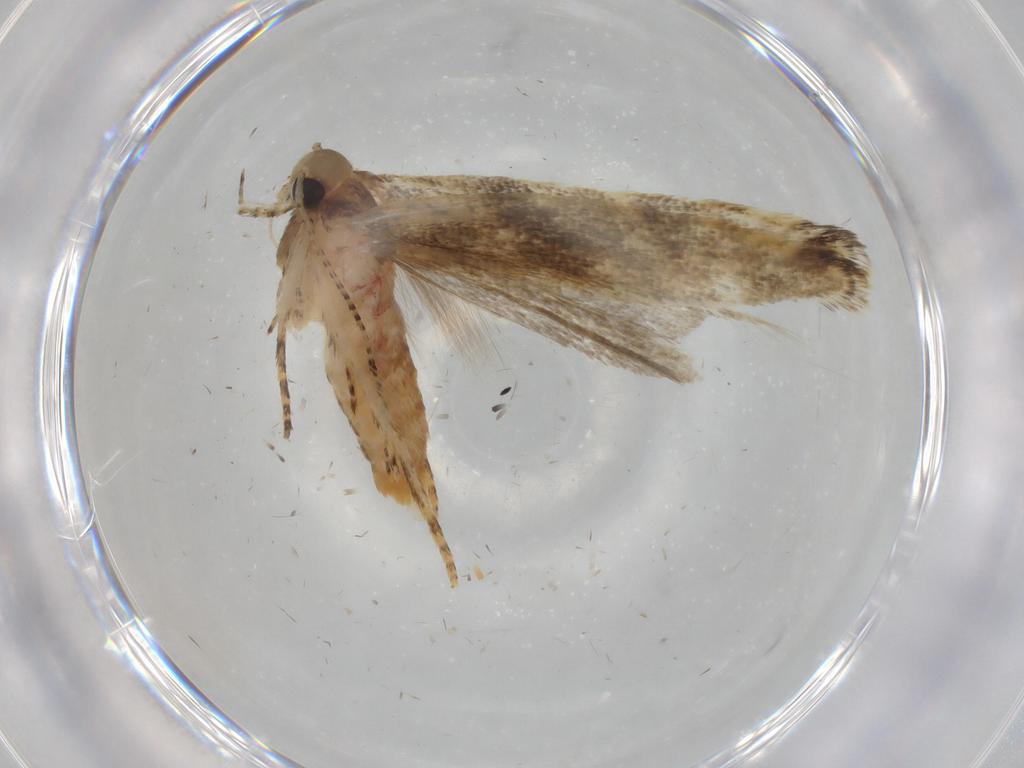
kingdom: Animalia
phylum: Arthropoda
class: Insecta
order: Lepidoptera
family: Gelechiidae
